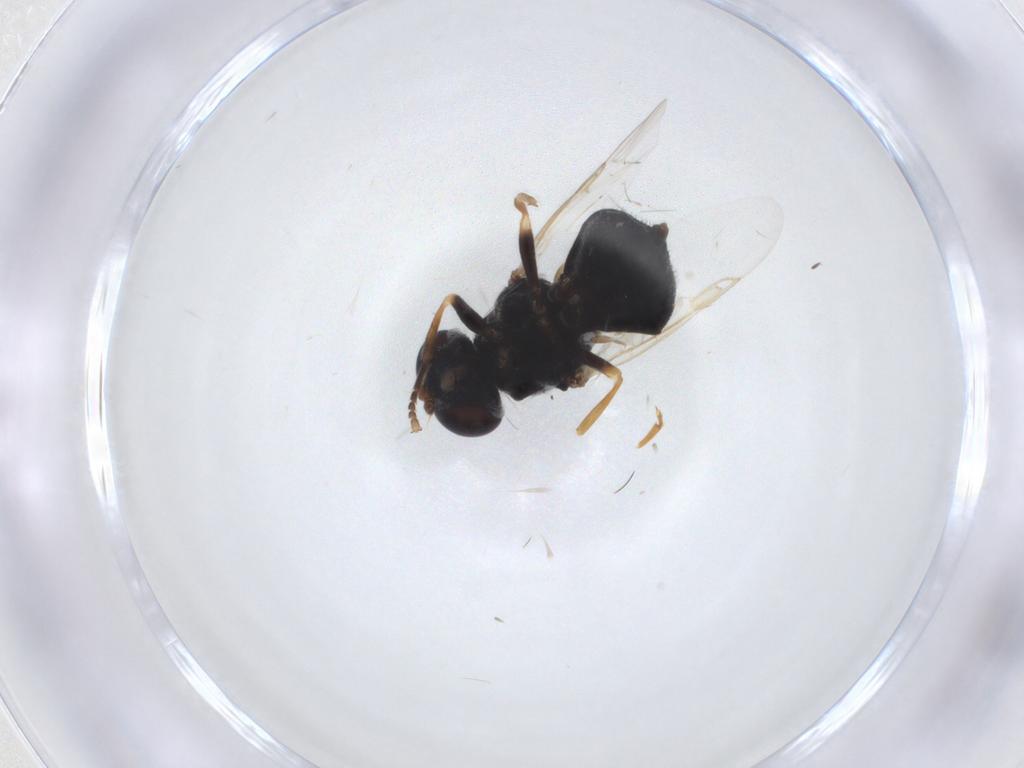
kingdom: Animalia
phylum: Arthropoda
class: Insecta
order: Diptera
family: Stratiomyidae
